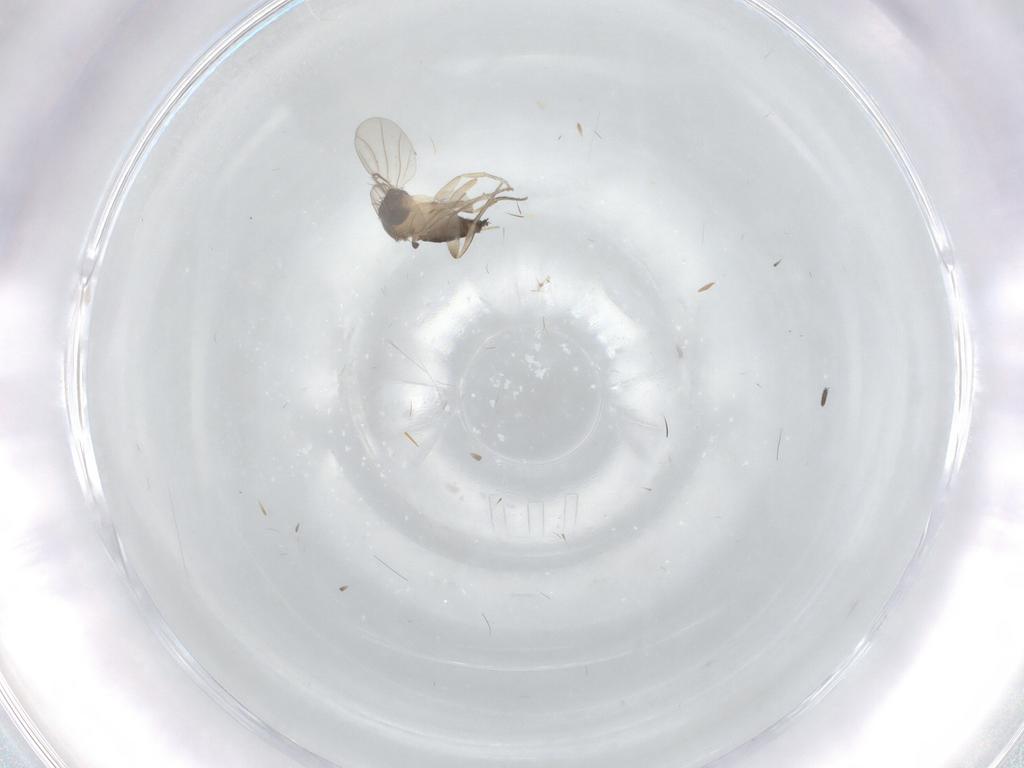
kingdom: Animalia
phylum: Arthropoda
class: Insecta
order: Diptera
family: Phoridae
